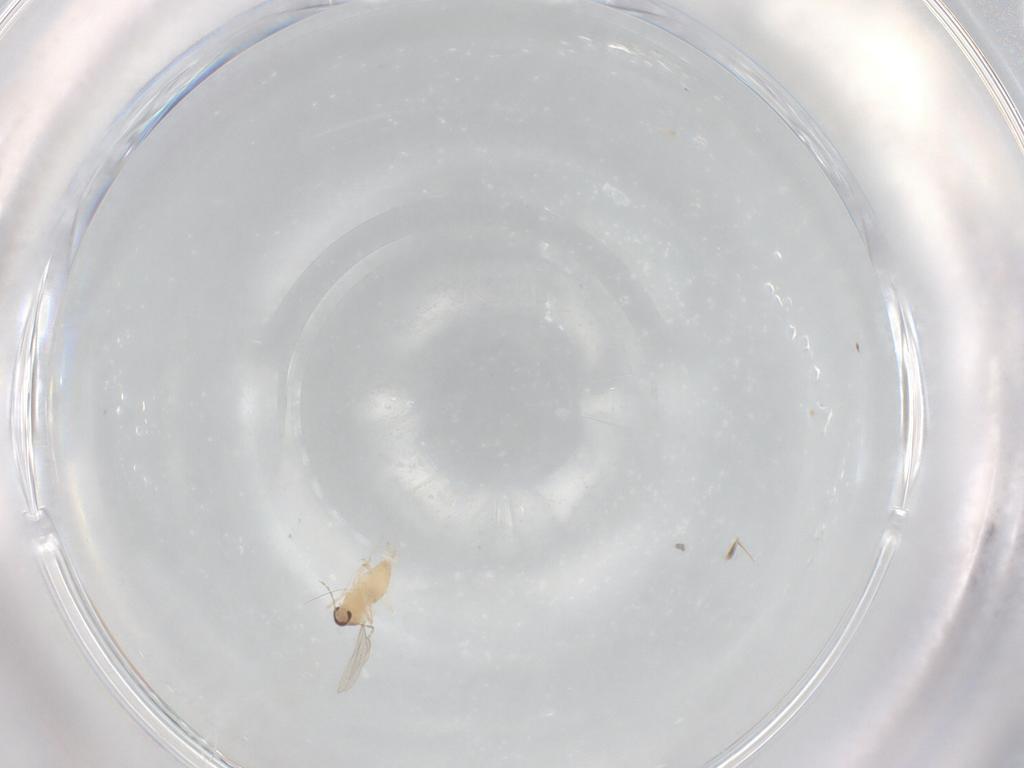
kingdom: Animalia
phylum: Arthropoda
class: Insecta
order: Diptera
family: Cecidomyiidae
